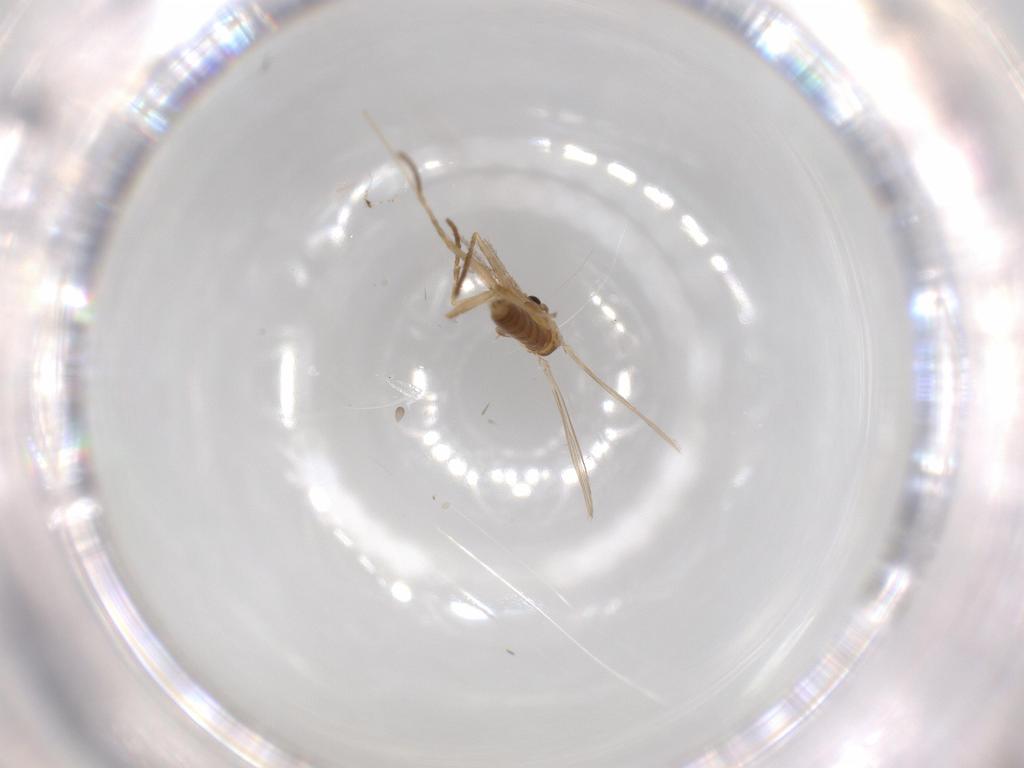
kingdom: Animalia
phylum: Arthropoda
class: Insecta
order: Diptera
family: Psychodidae
